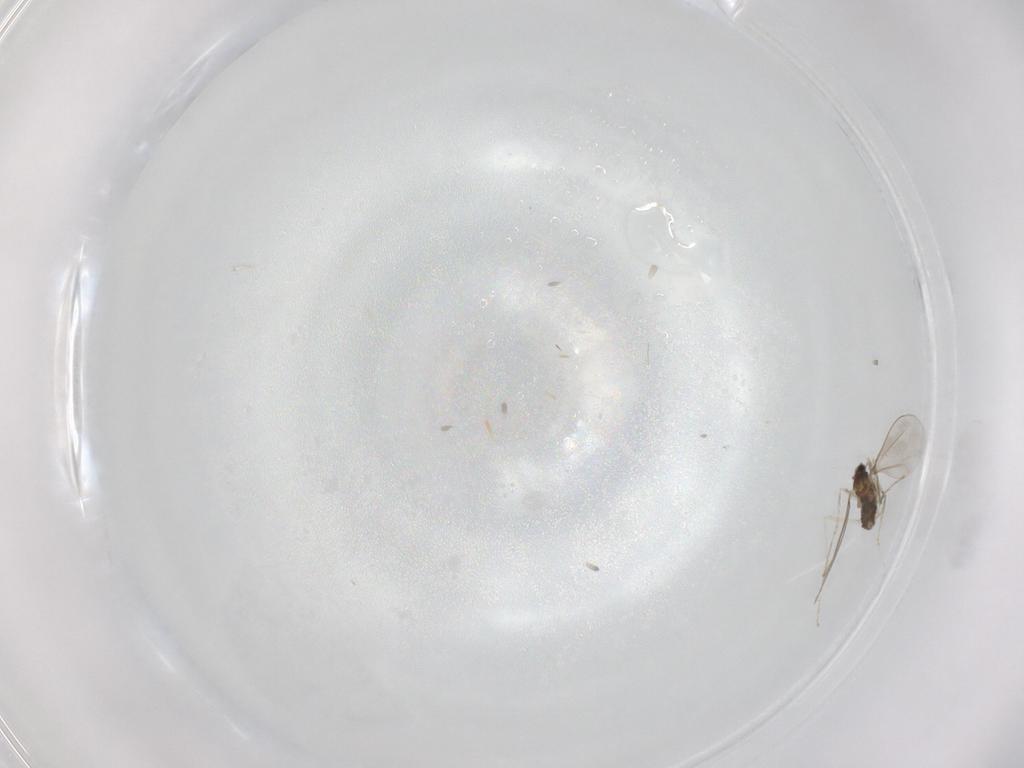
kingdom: Animalia
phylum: Arthropoda
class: Insecta
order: Diptera
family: Cecidomyiidae
